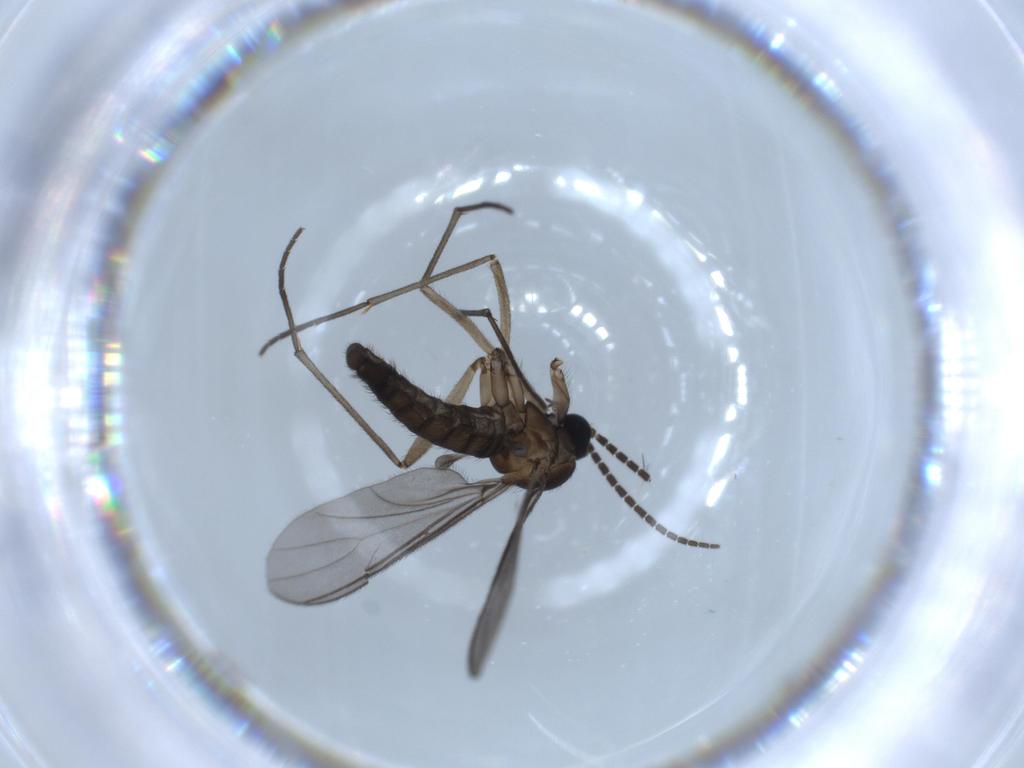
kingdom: Animalia
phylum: Arthropoda
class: Insecta
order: Diptera
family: Sciaridae
